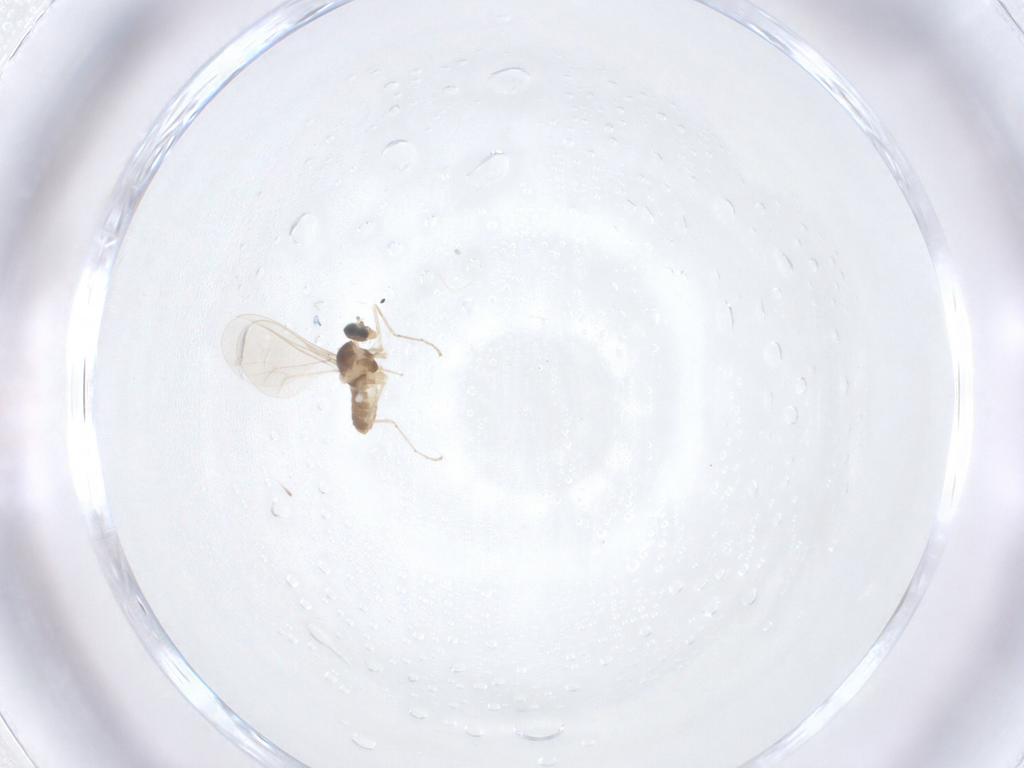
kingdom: Animalia
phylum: Arthropoda
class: Insecta
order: Diptera
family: Cecidomyiidae
